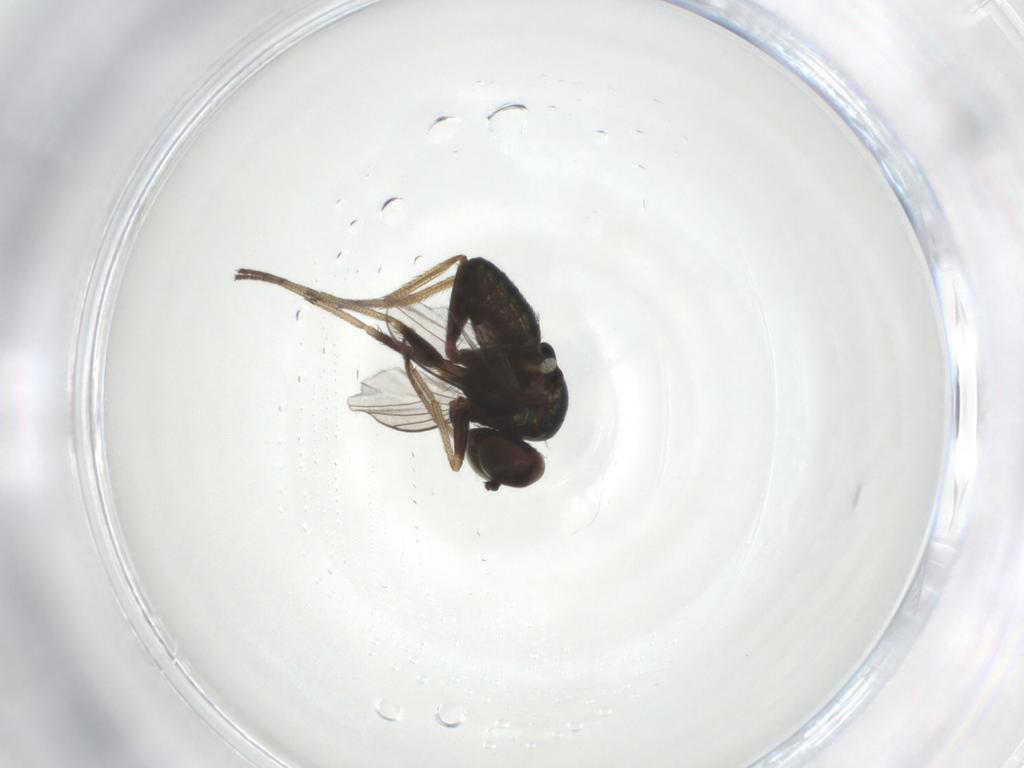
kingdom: Animalia
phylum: Arthropoda
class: Insecta
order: Diptera
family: Dolichopodidae
